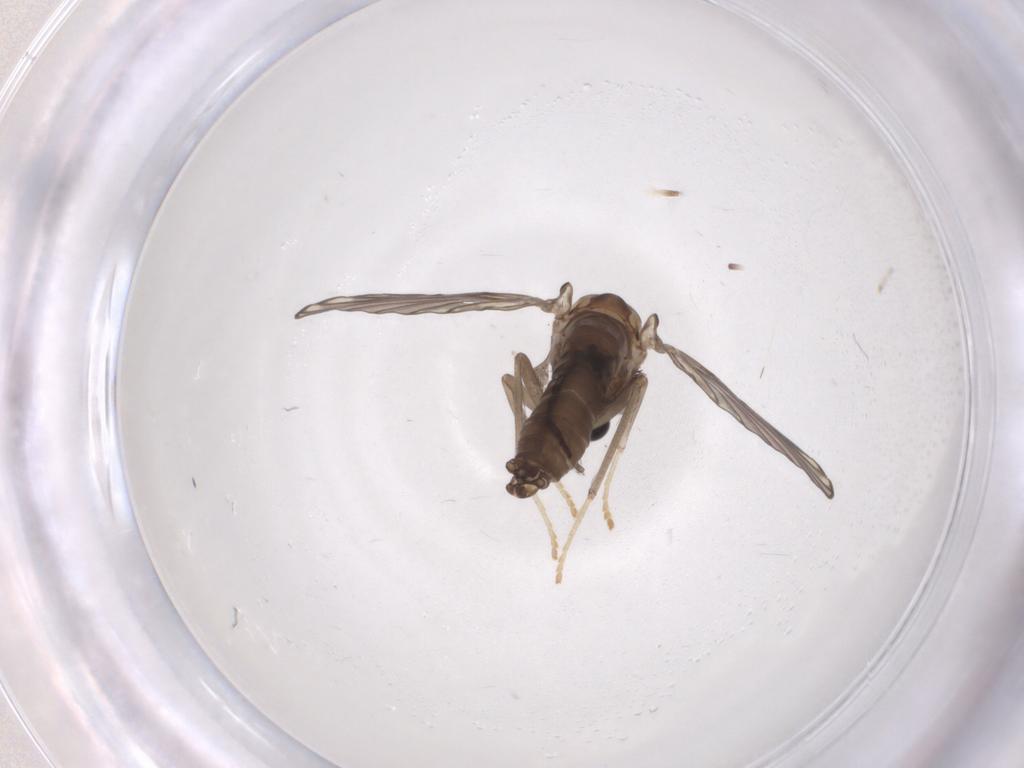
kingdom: Animalia
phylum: Arthropoda
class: Insecta
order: Diptera
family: Psychodidae
